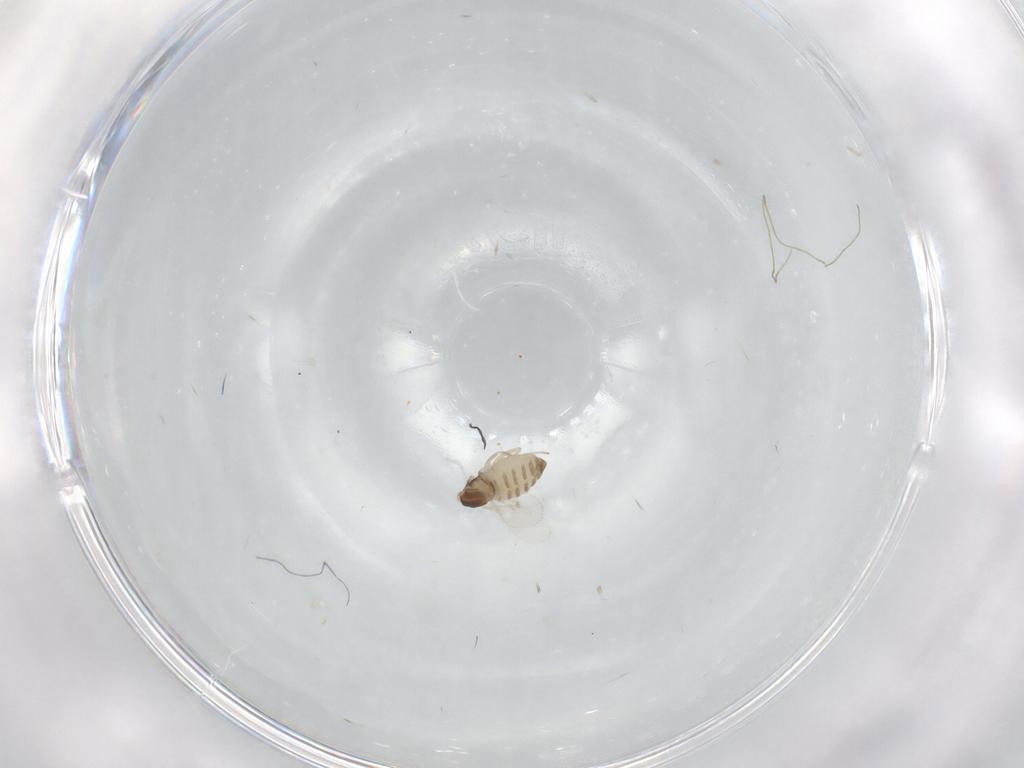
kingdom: Animalia
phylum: Arthropoda
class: Insecta
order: Diptera
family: Cecidomyiidae
